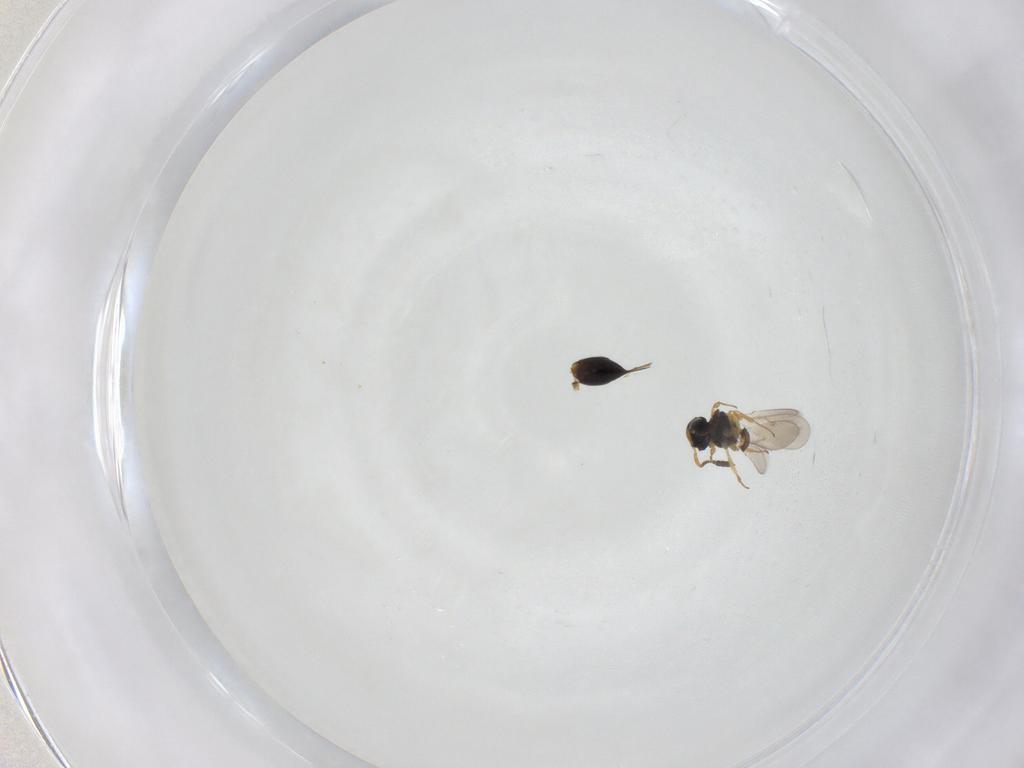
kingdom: Animalia
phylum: Arthropoda
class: Insecta
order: Hymenoptera
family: Scelionidae
